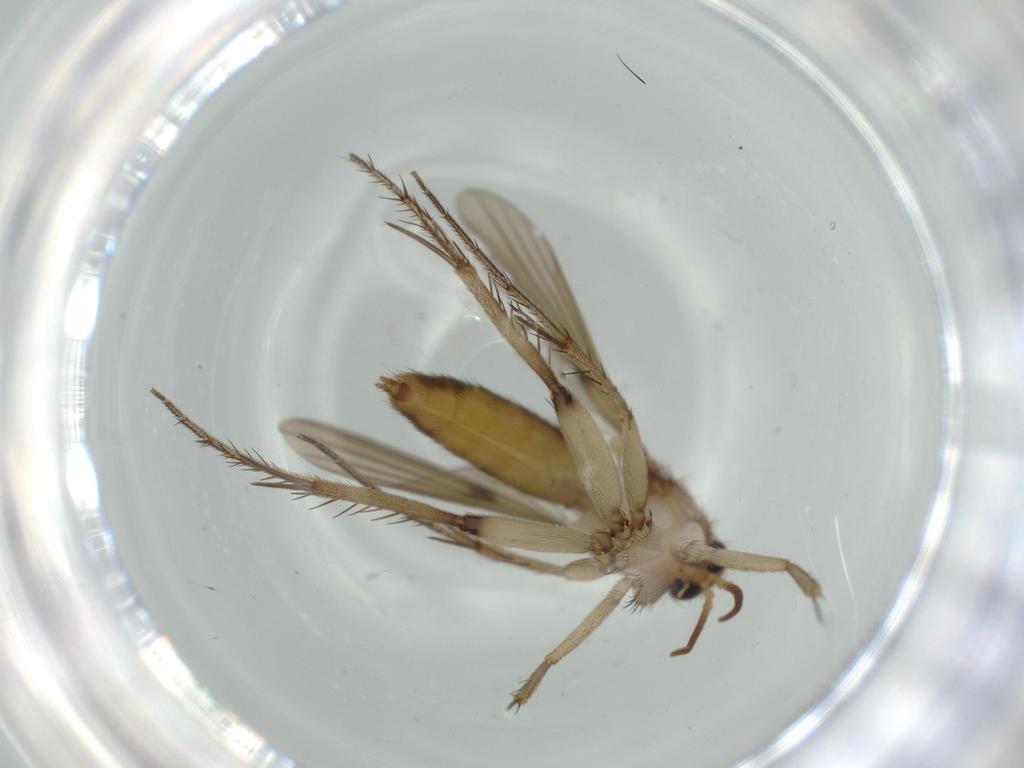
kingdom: Animalia
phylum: Arthropoda
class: Insecta
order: Diptera
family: Mycetophilidae
